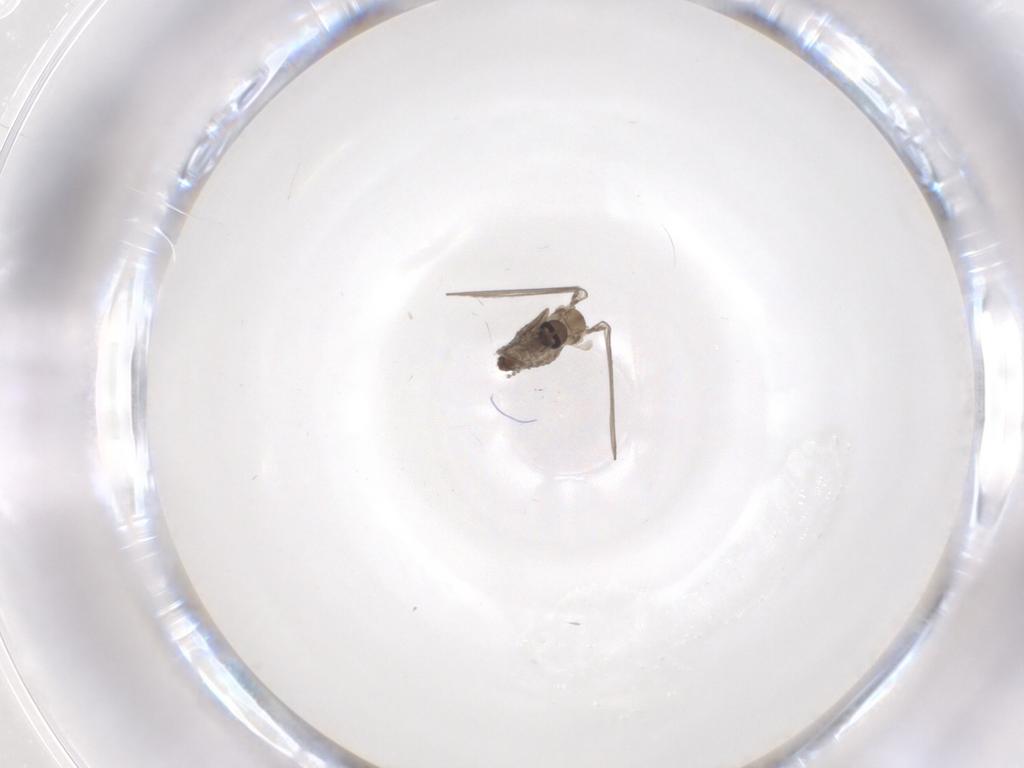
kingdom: Animalia
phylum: Arthropoda
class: Insecta
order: Diptera
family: Psychodidae
